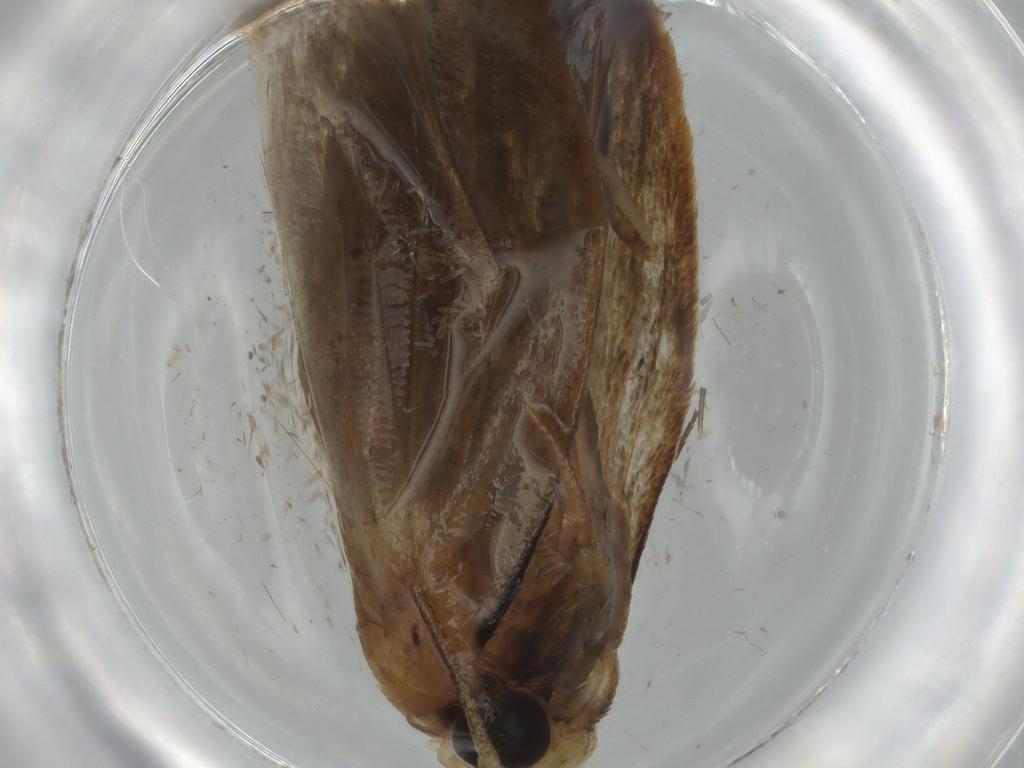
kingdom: Animalia
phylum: Arthropoda
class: Insecta
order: Lepidoptera
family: Oecophoridae
